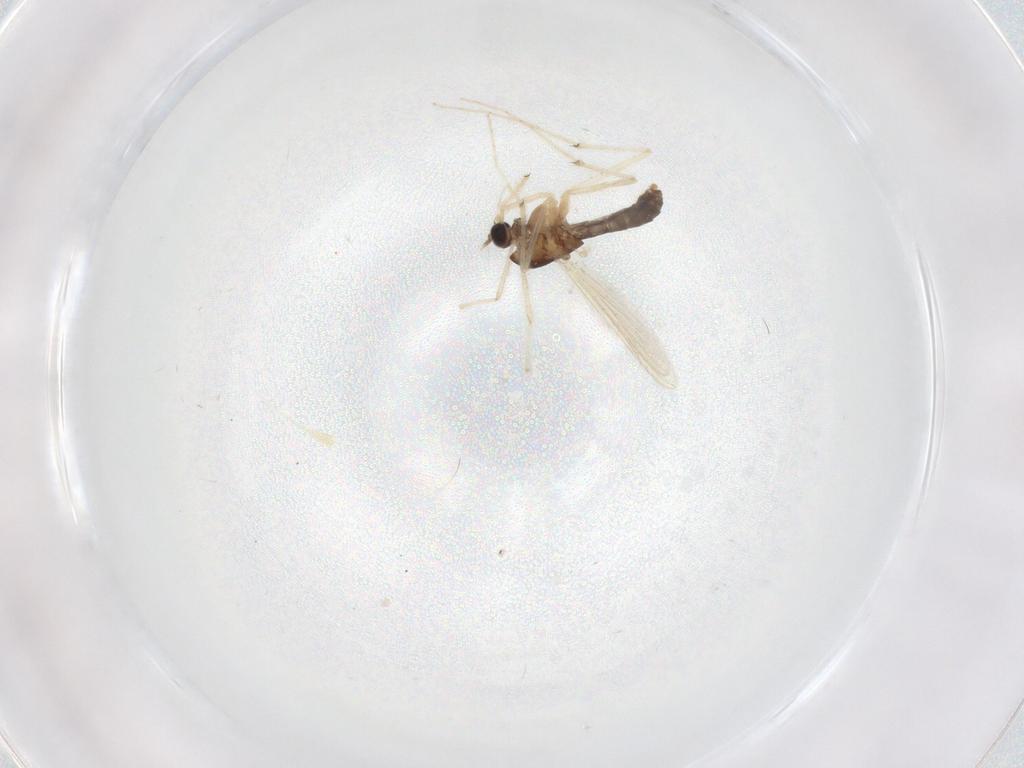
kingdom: Animalia
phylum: Arthropoda
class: Insecta
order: Diptera
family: Chironomidae
